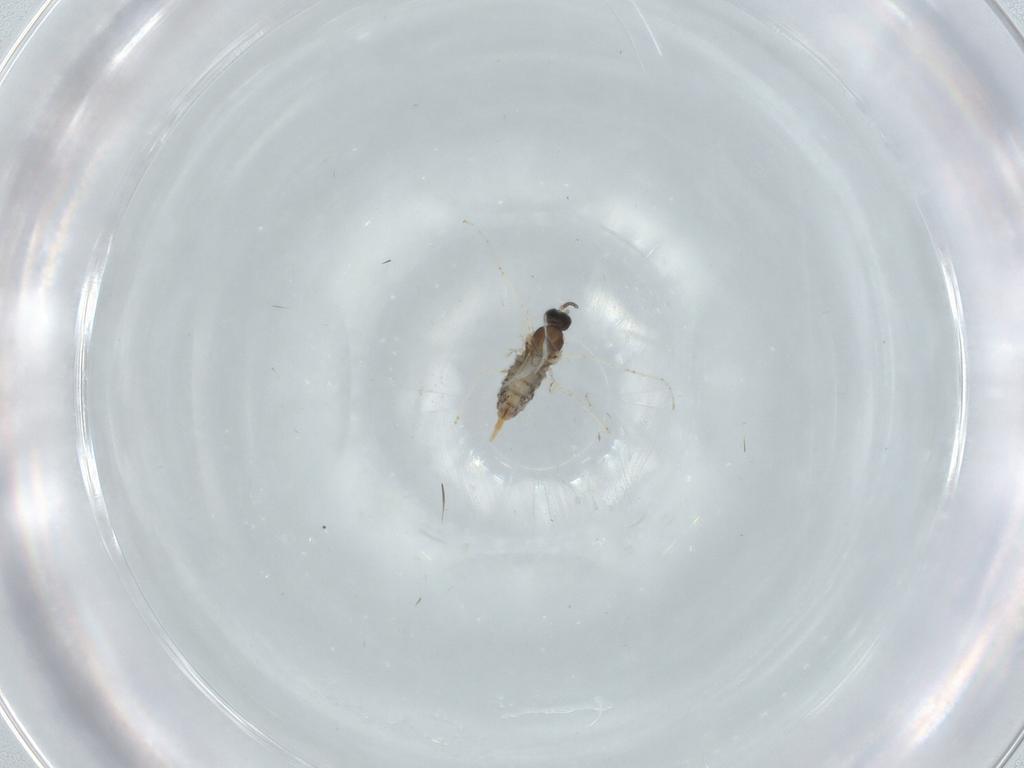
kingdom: Animalia
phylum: Arthropoda
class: Insecta
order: Diptera
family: Cecidomyiidae
